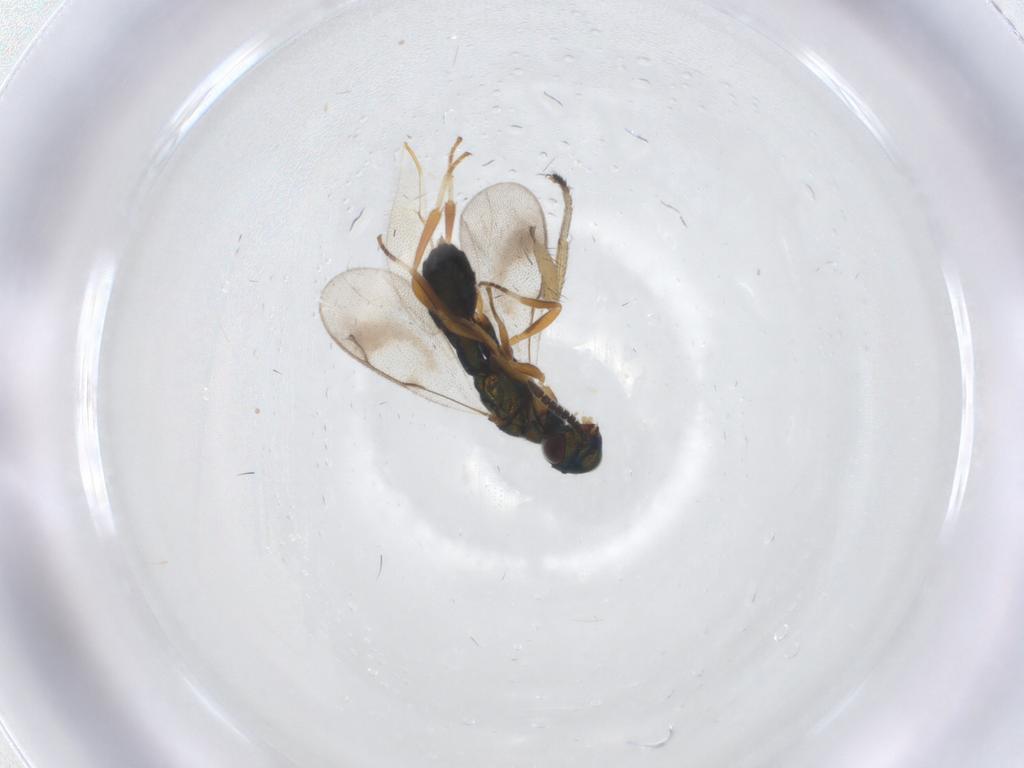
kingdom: Animalia
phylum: Arthropoda
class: Insecta
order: Hymenoptera
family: Cleonyminae
